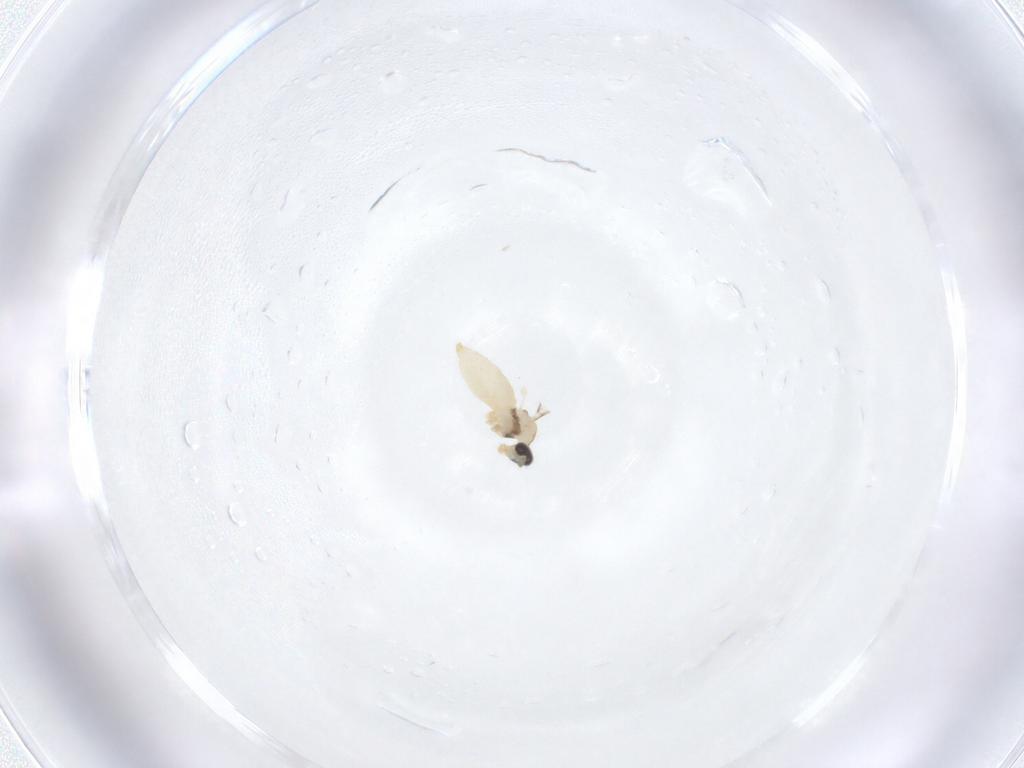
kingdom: Animalia
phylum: Arthropoda
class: Insecta
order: Diptera
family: Cecidomyiidae
